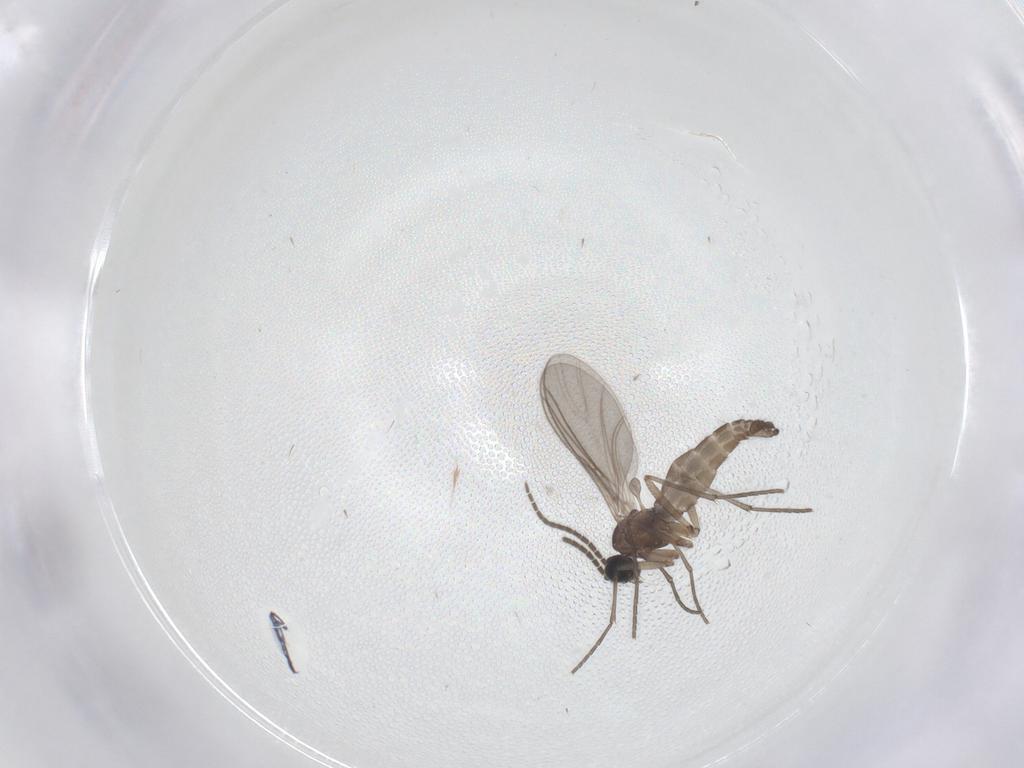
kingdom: Animalia
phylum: Arthropoda
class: Insecta
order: Diptera
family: Sciaridae
